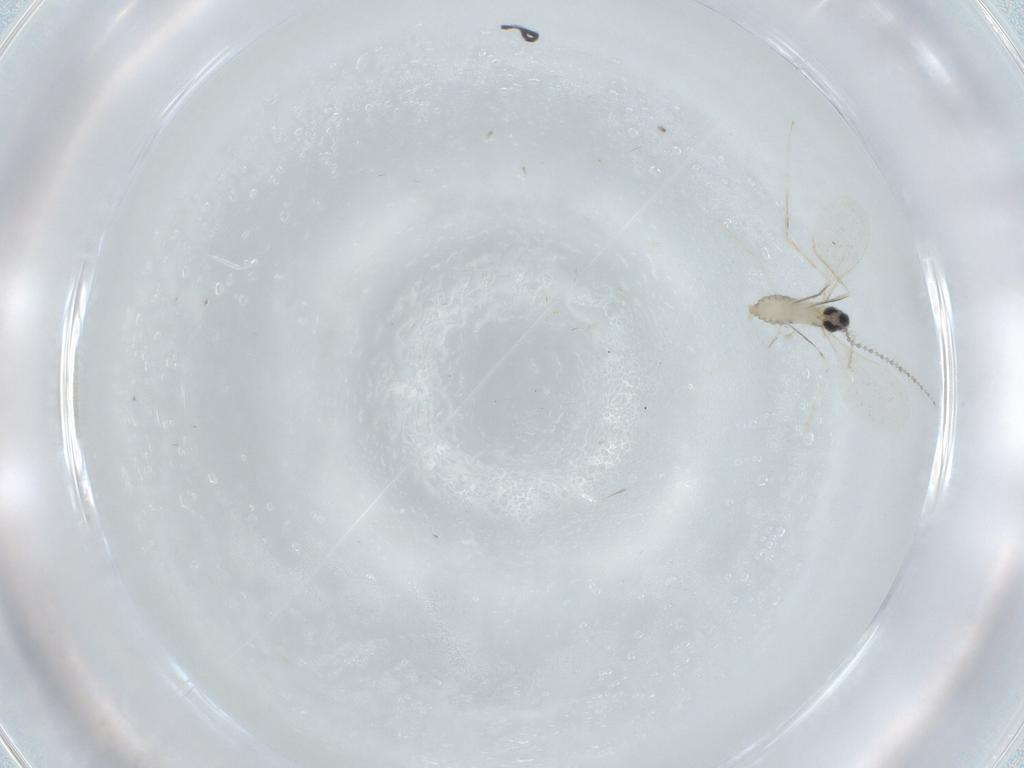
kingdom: Animalia
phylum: Arthropoda
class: Insecta
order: Diptera
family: Cecidomyiidae
